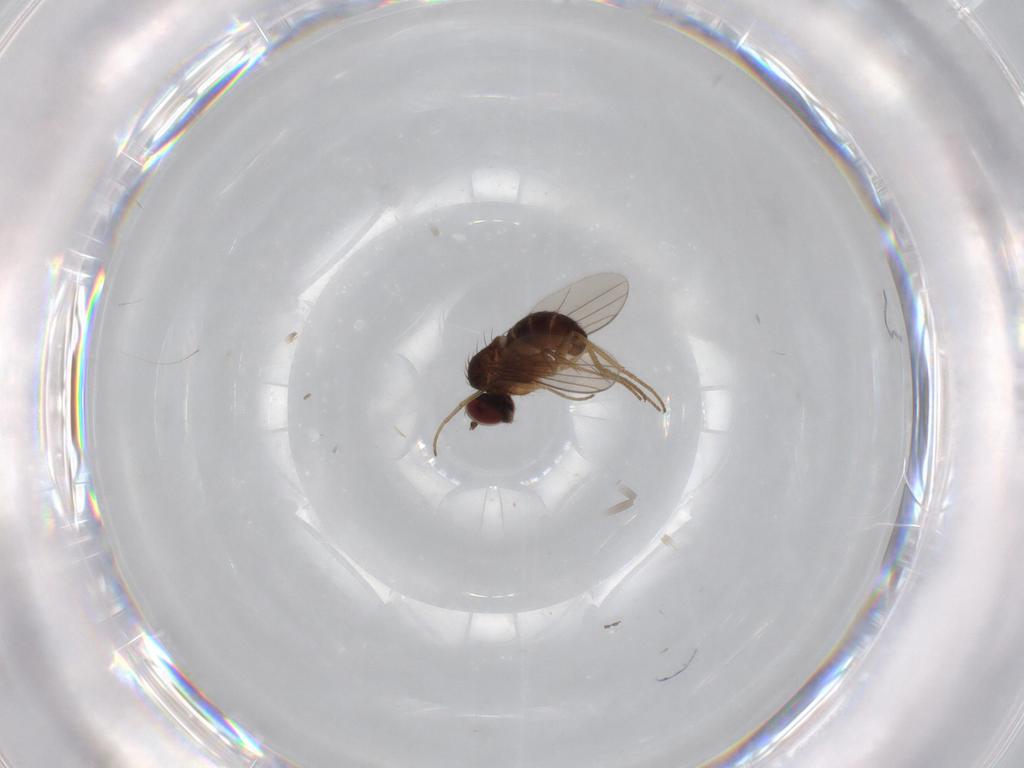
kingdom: Animalia
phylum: Arthropoda
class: Insecta
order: Diptera
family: Dolichopodidae
